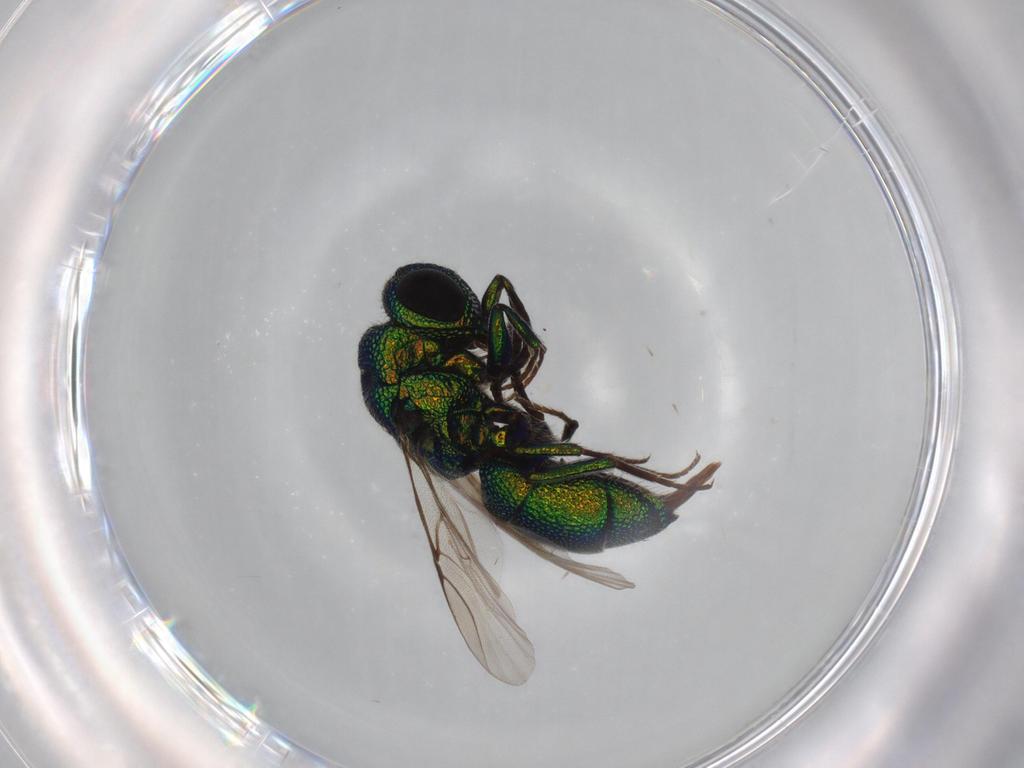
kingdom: Animalia
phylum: Arthropoda
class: Insecta
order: Hymenoptera
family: Chrysididae
